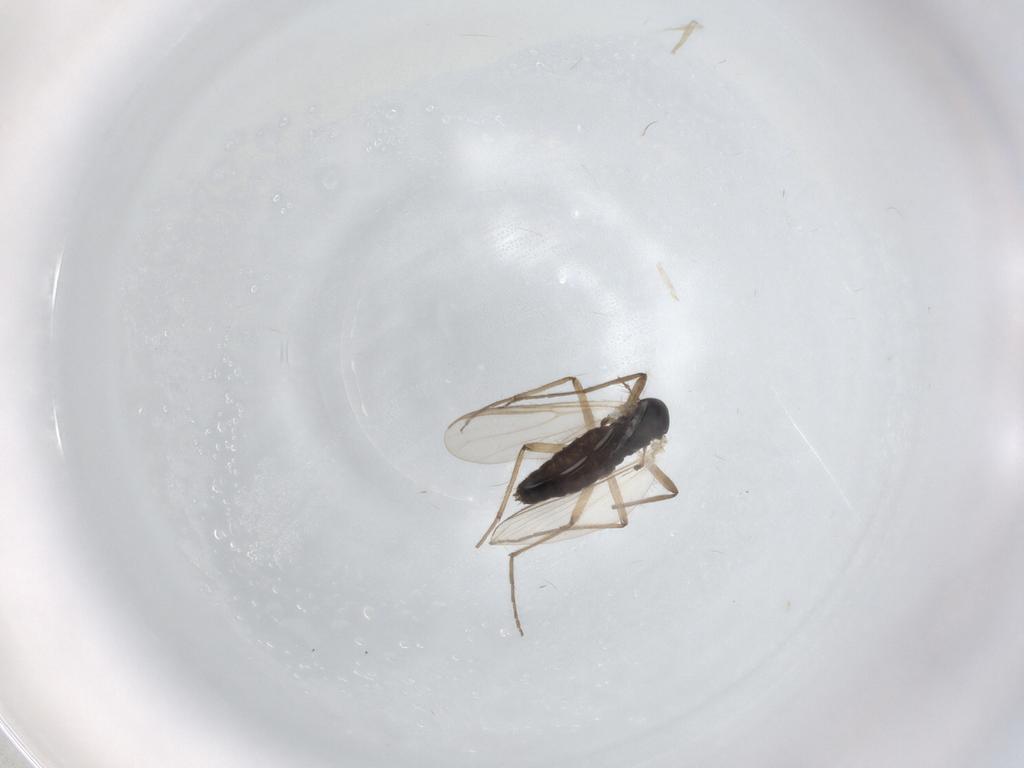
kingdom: Animalia
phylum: Arthropoda
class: Insecta
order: Diptera
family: Chironomidae
